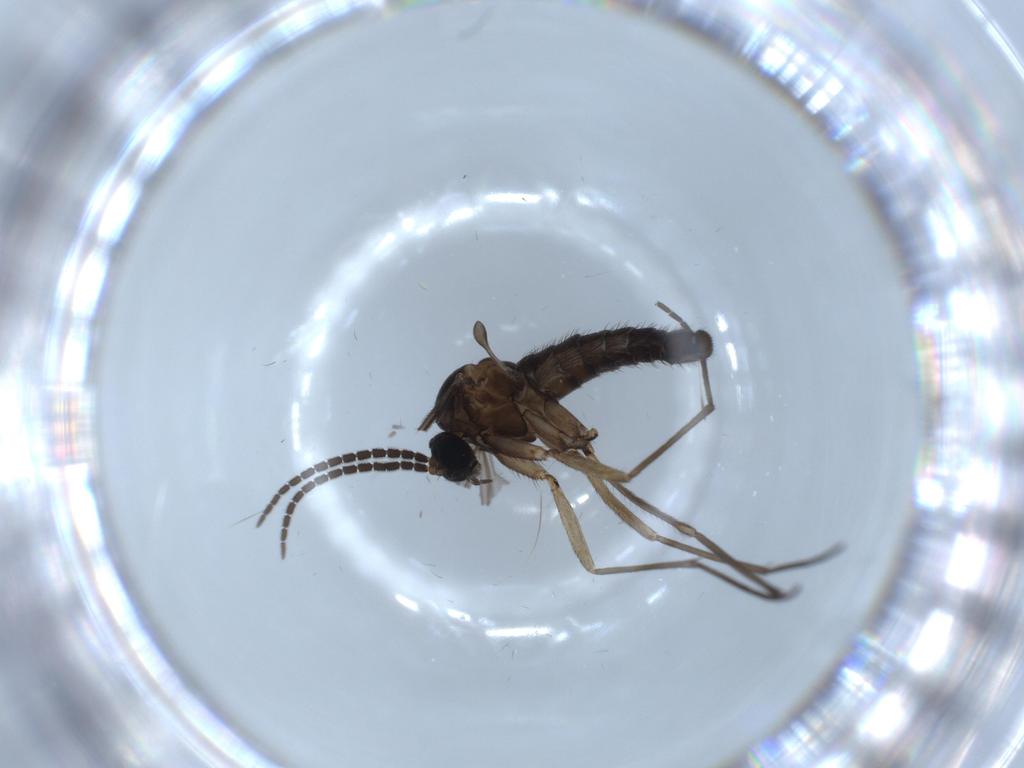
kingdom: Animalia
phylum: Arthropoda
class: Insecta
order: Diptera
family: Sciaridae
